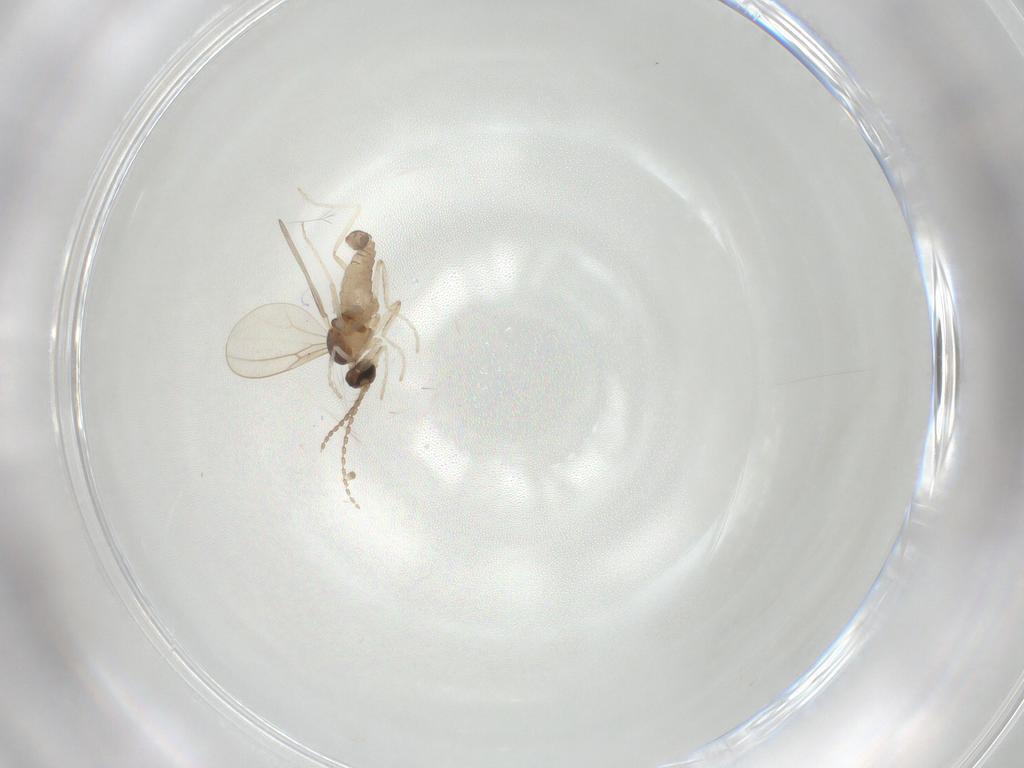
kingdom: Animalia
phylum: Arthropoda
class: Insecta
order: Diptera
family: Cecidomyiidae
